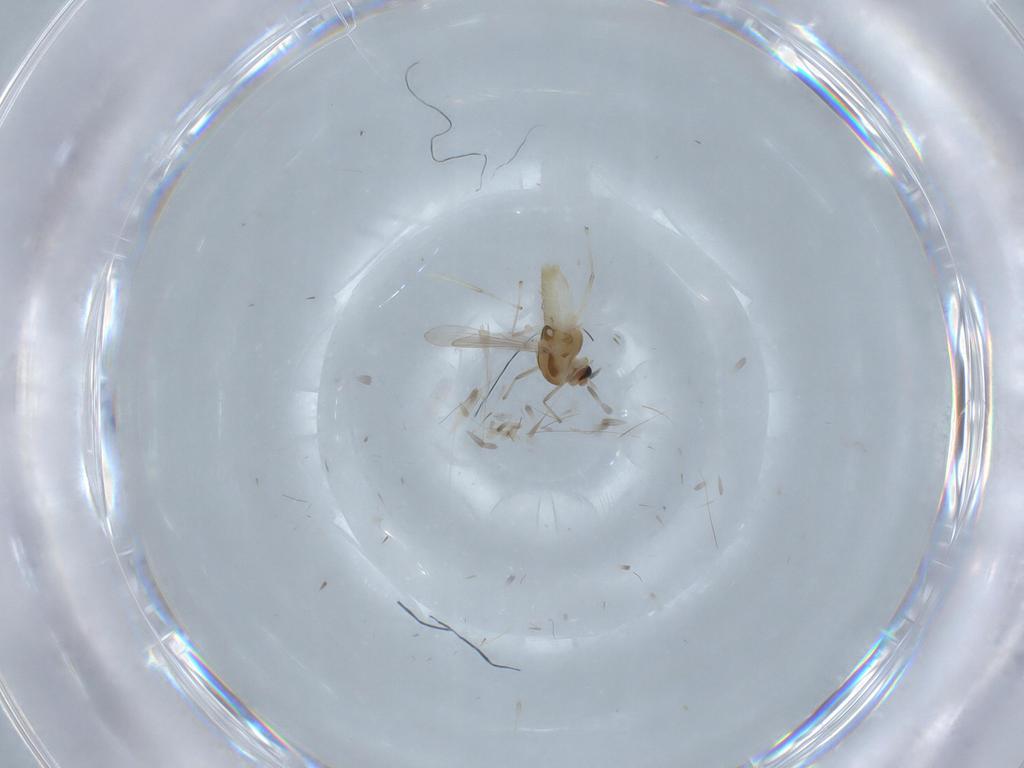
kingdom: Animalia
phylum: Arthropoda
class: Insecta
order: Diptera
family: Chironomidae
